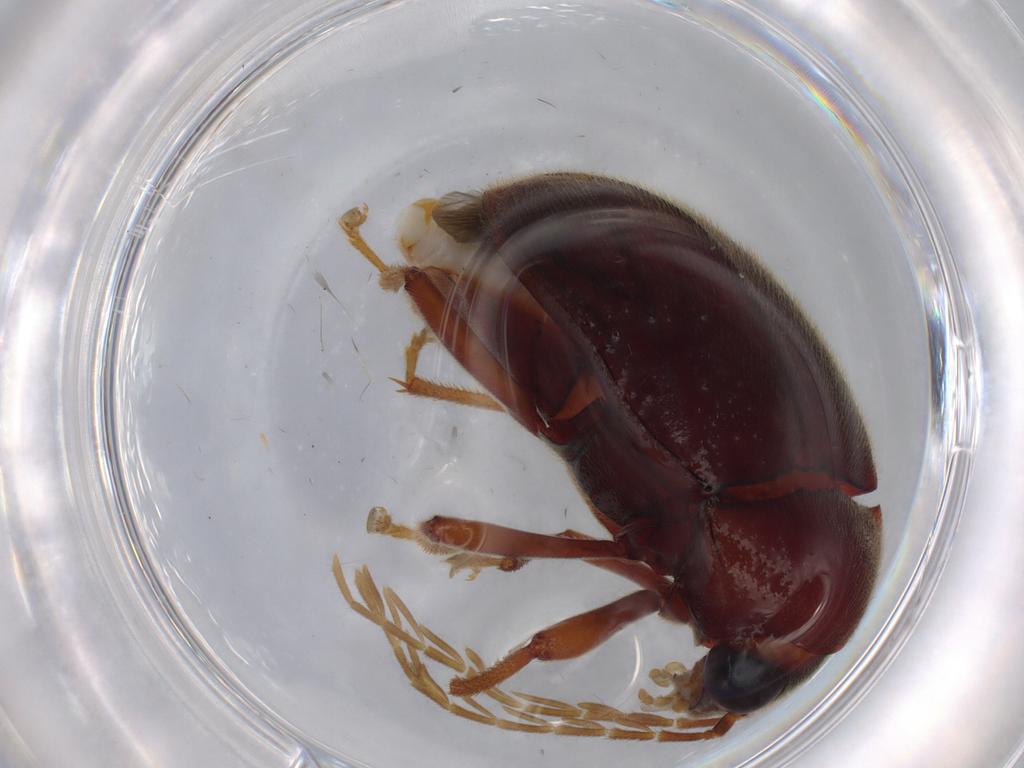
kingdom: Animalia
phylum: Arthropoda
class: Insecta
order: Coleoptera
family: Ptilodactylidae
